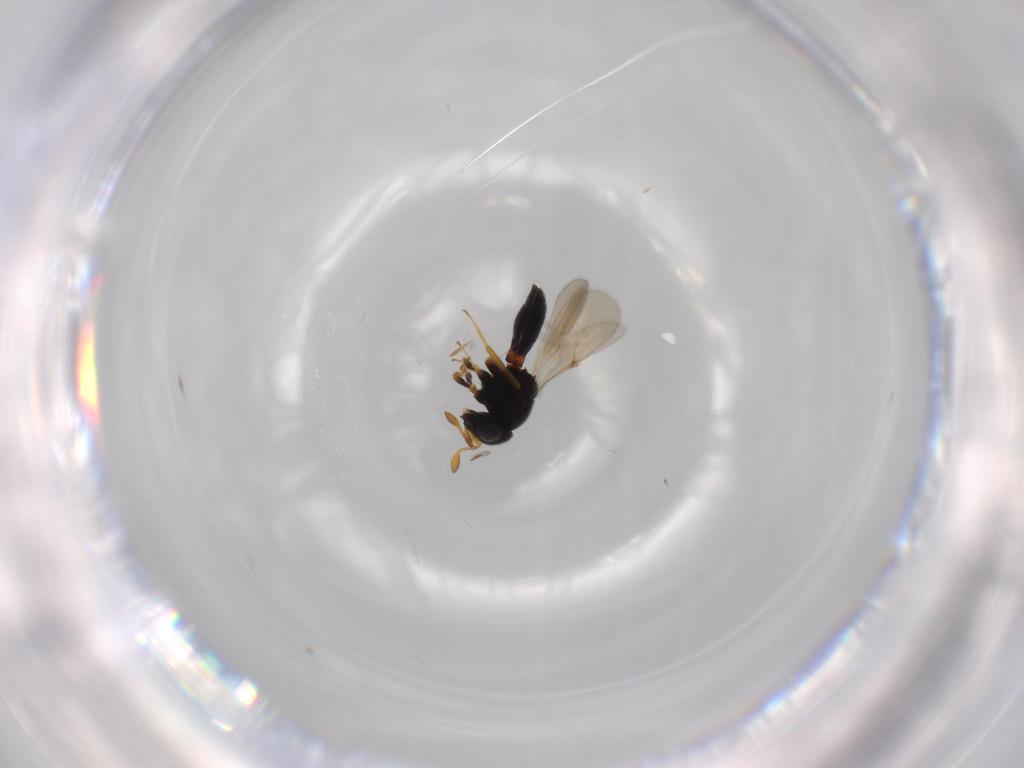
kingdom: Animalia
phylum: Arthropoda
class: Insecta
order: Hymenoptera
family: Scelionidae
